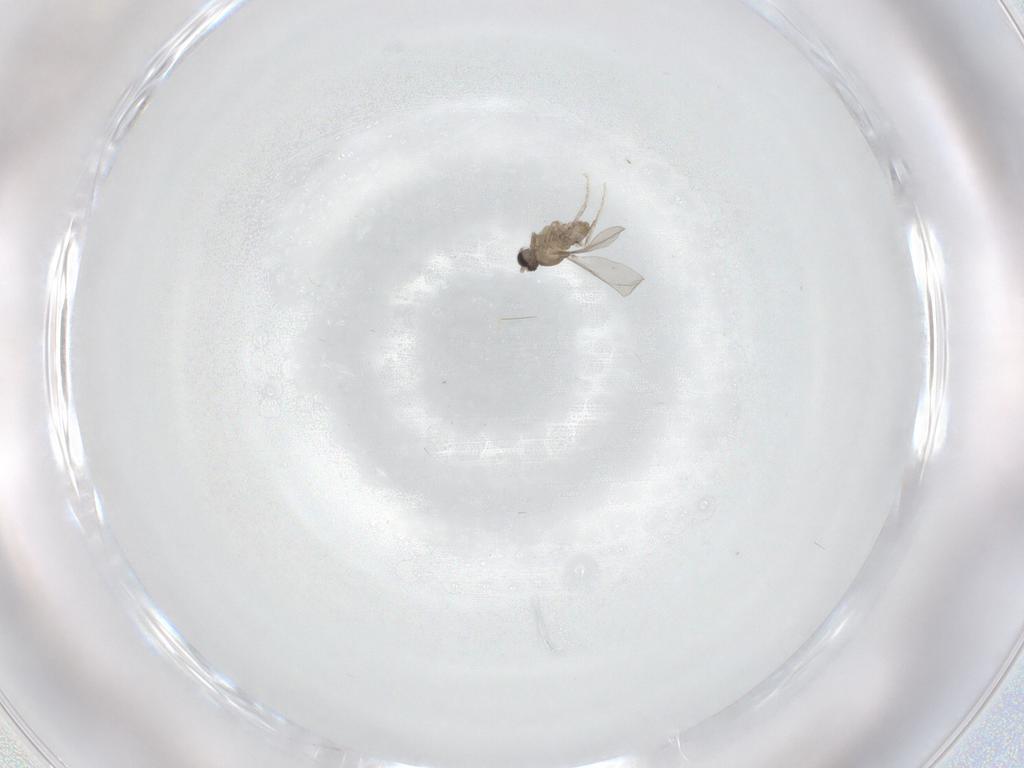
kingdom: Animalia
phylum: Arthropoda
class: Insecta
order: Diptera
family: Cecidomyiidae
